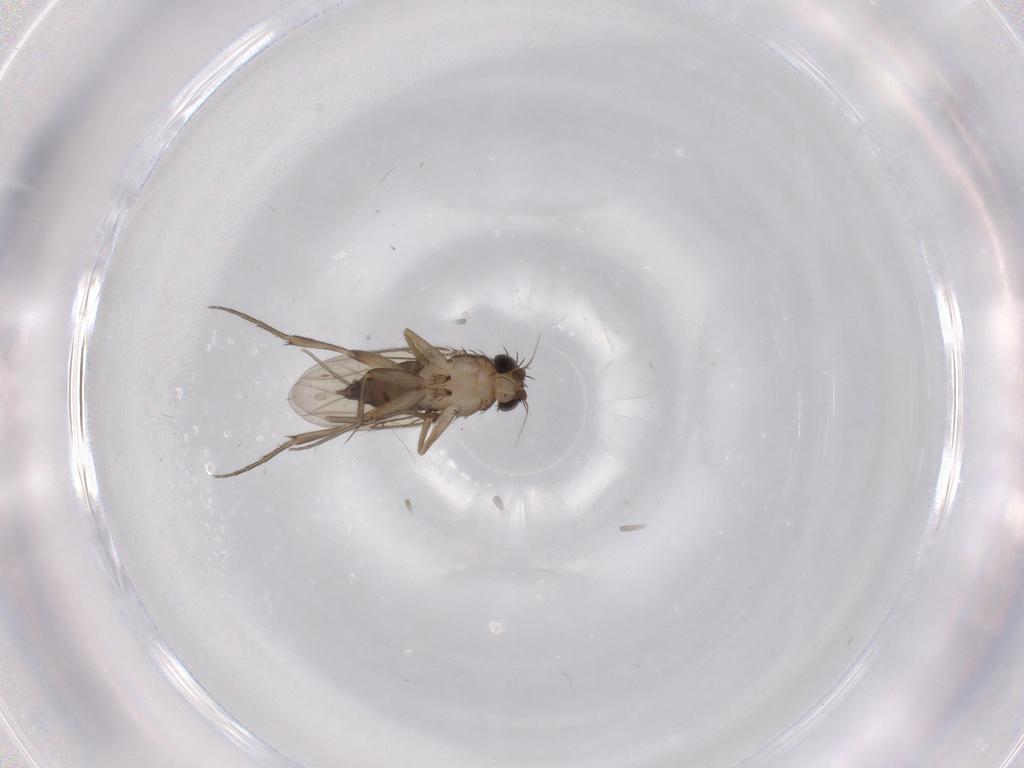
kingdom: Animalia
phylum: Arthropoda
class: Insecta
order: Diptera
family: Phoridae
